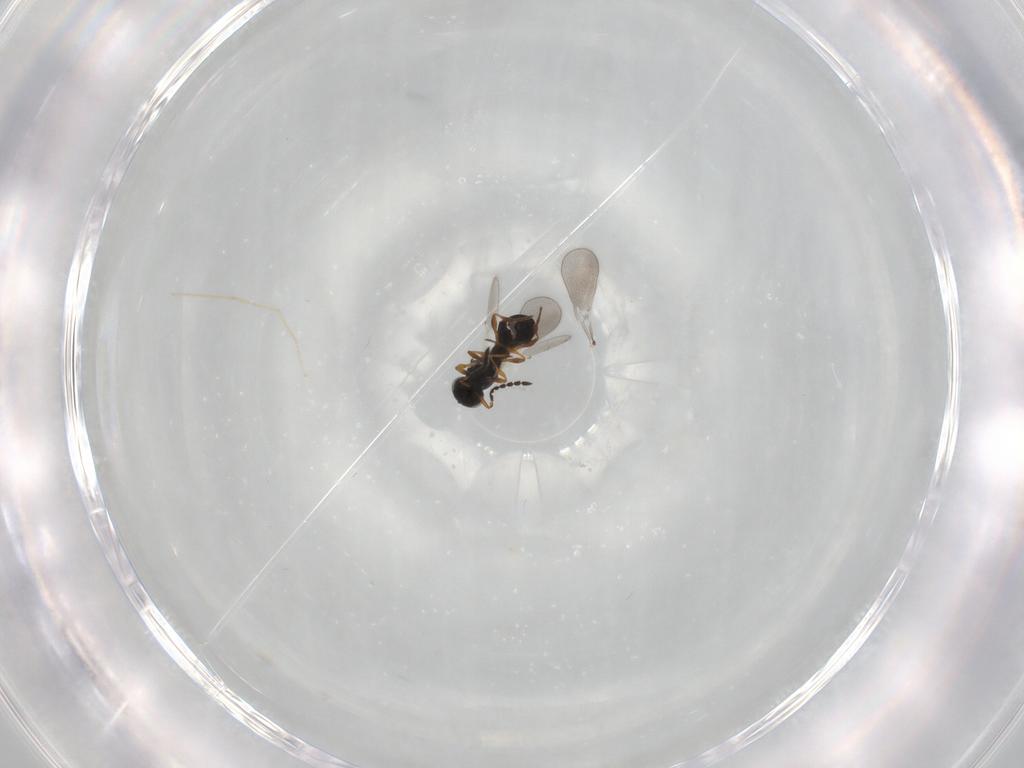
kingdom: Animalia
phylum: Arthropoda
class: Insecta
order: Hymenoptera
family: Platygastridae
